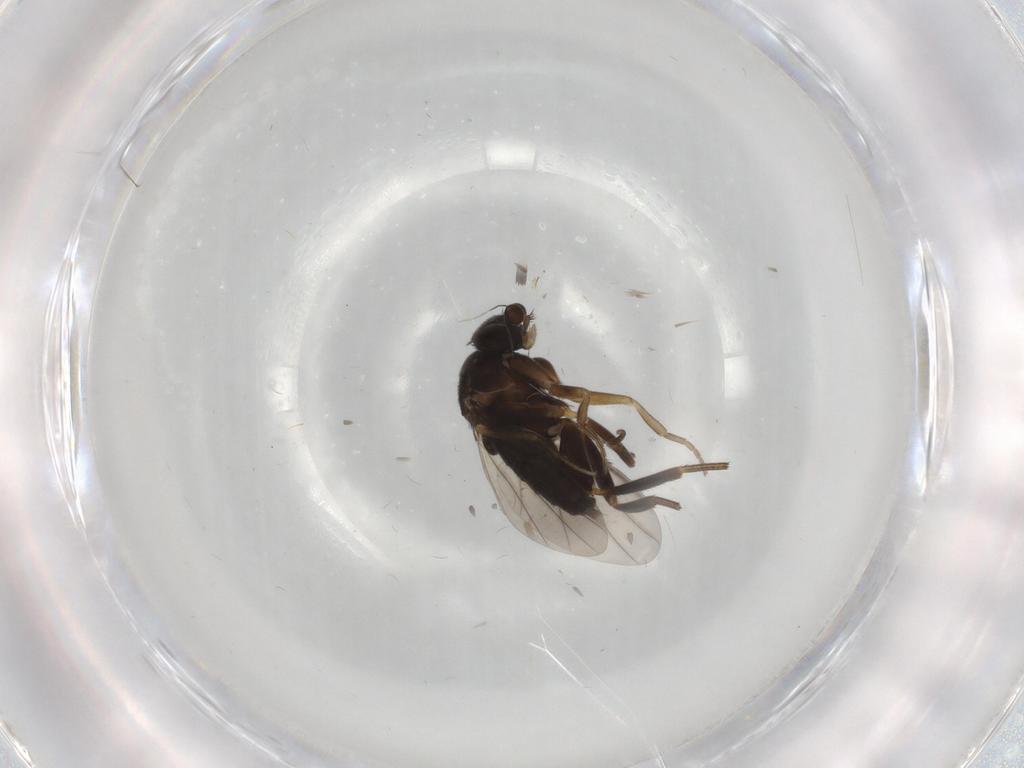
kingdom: Animalia
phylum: Arthropoda
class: Insecta
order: Diptera
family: Cecidomyiidae
